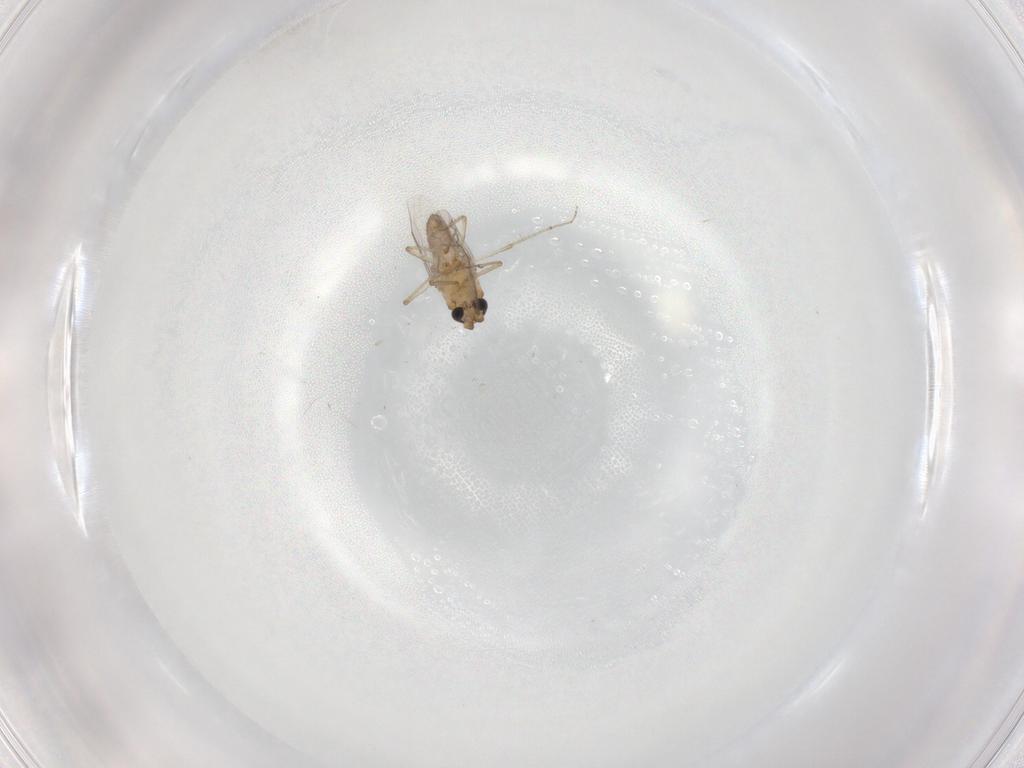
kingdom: Animalia
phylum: Arthropoda
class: Insecta
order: Diptera
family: Ceratopogonidae
